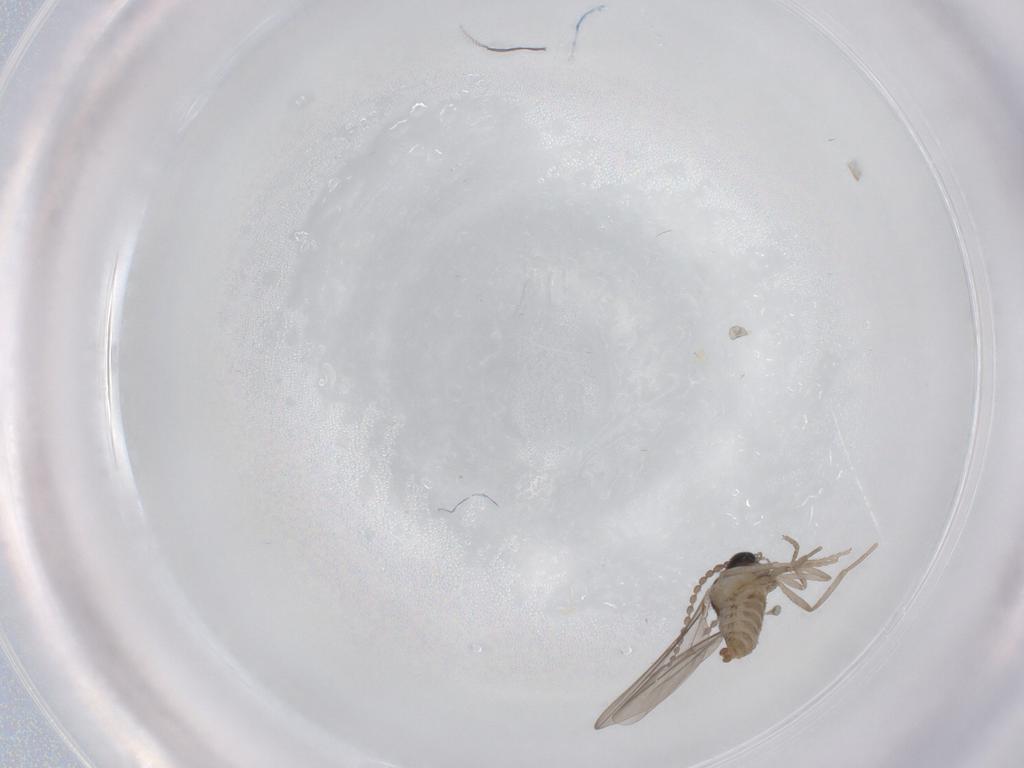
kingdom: Animalia
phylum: Arthropoda
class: Insecta
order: Diptera
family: Cecidomyiidae
